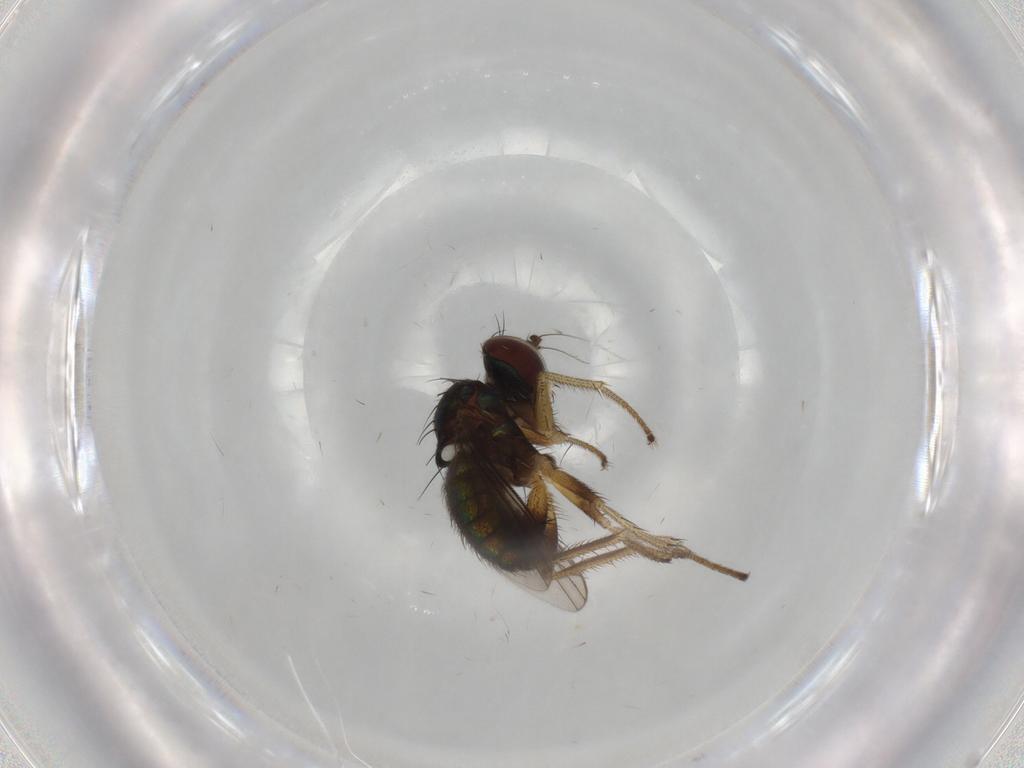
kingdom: Animalia
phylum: Arthropoda
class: Insecta
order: Diptera
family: Dolichopodidae
